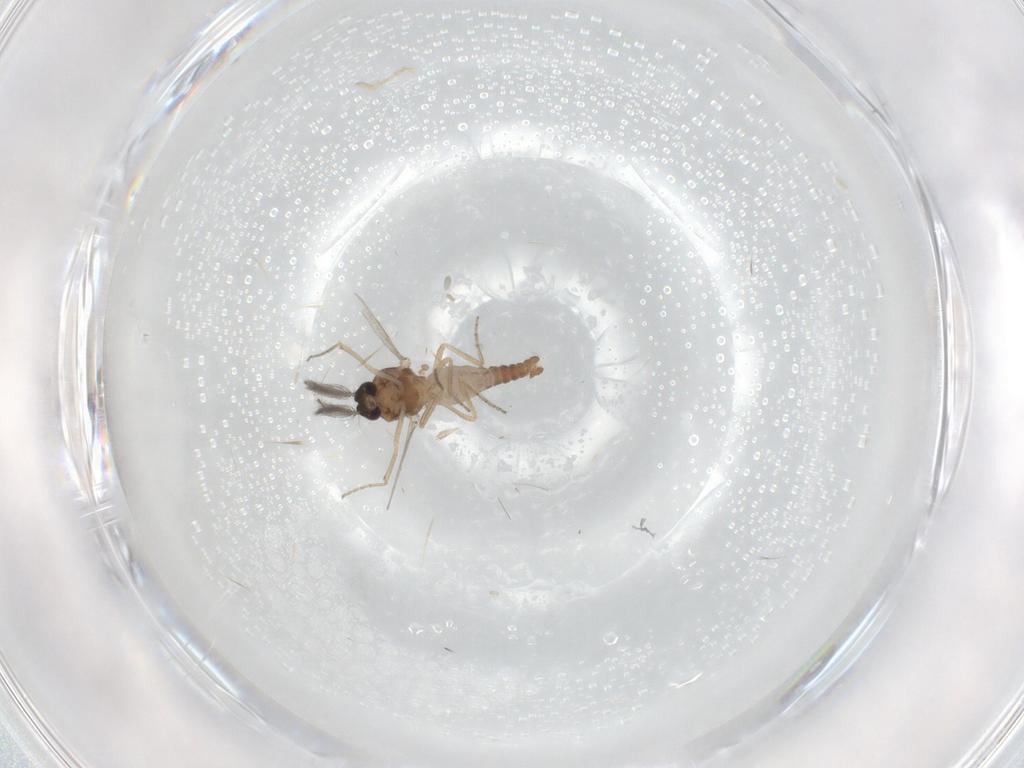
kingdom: Animalia
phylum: Arthropoda
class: Insecta
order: Diptera
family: Ceratopogonidae
